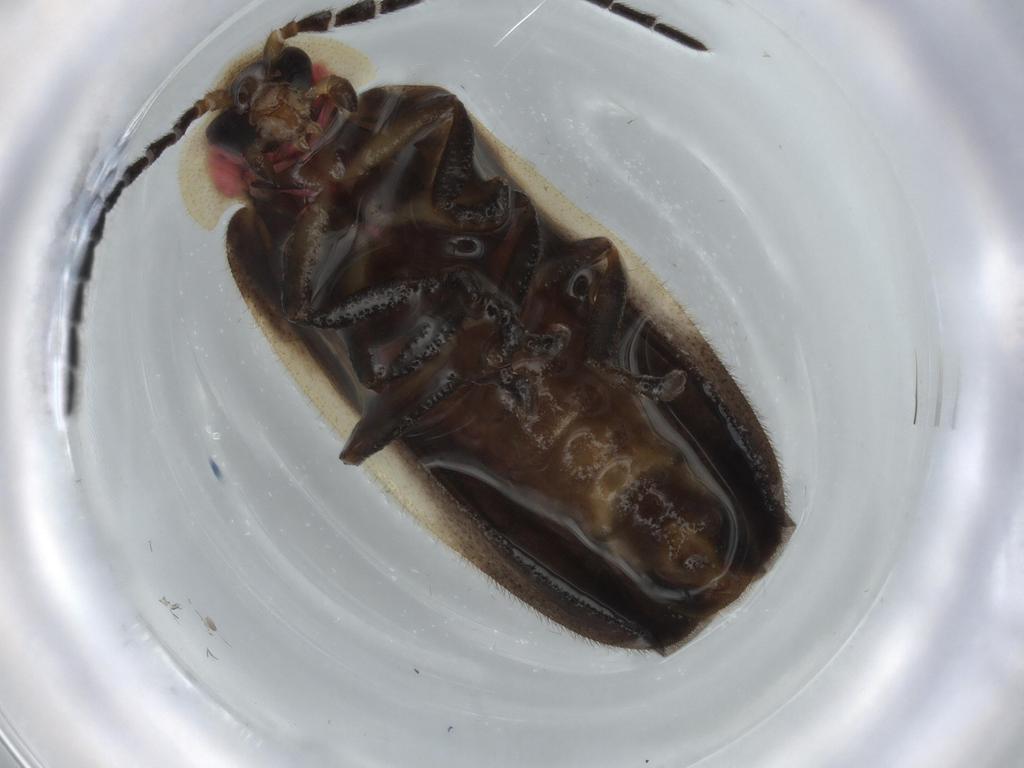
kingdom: Animalia
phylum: Arthropoda
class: Insecta
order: Coleoptera
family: Lampyridae
